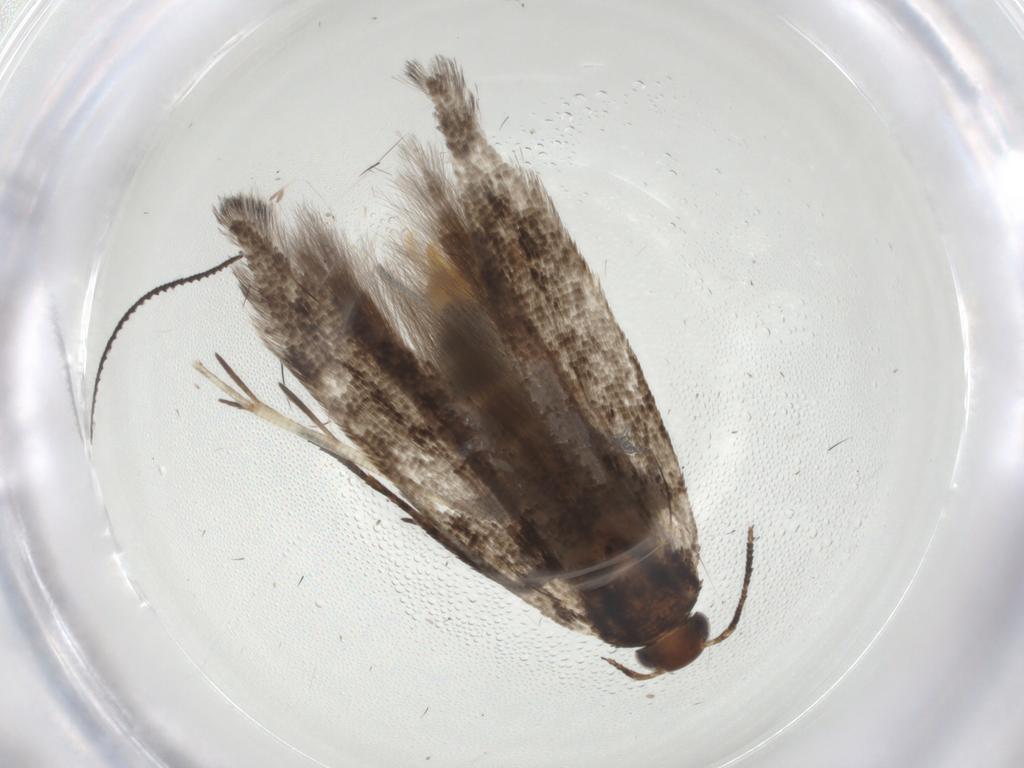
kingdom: Animalia
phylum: Arthropoda
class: Insecta
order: Lepidoptera
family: Gelechiidae
